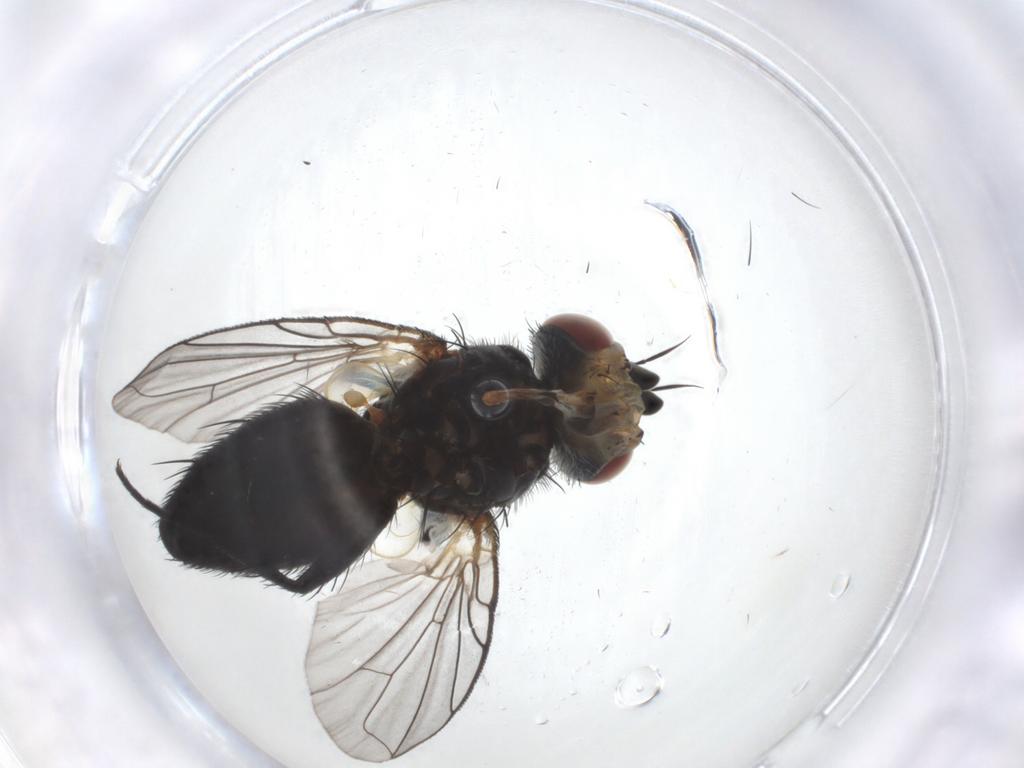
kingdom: Animalia
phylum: Arthropoda
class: Insecta
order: Diptera
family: Tachinidae
